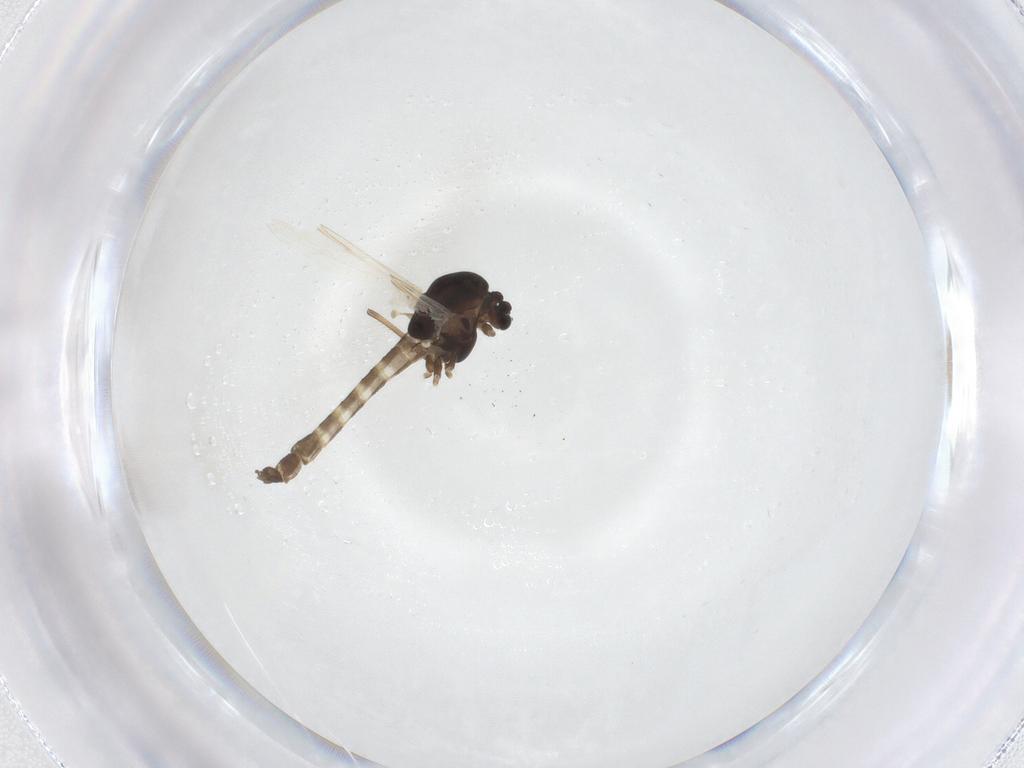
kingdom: Animalia
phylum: Arthropoda
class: Insecta
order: Diptera
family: Chironomidae
